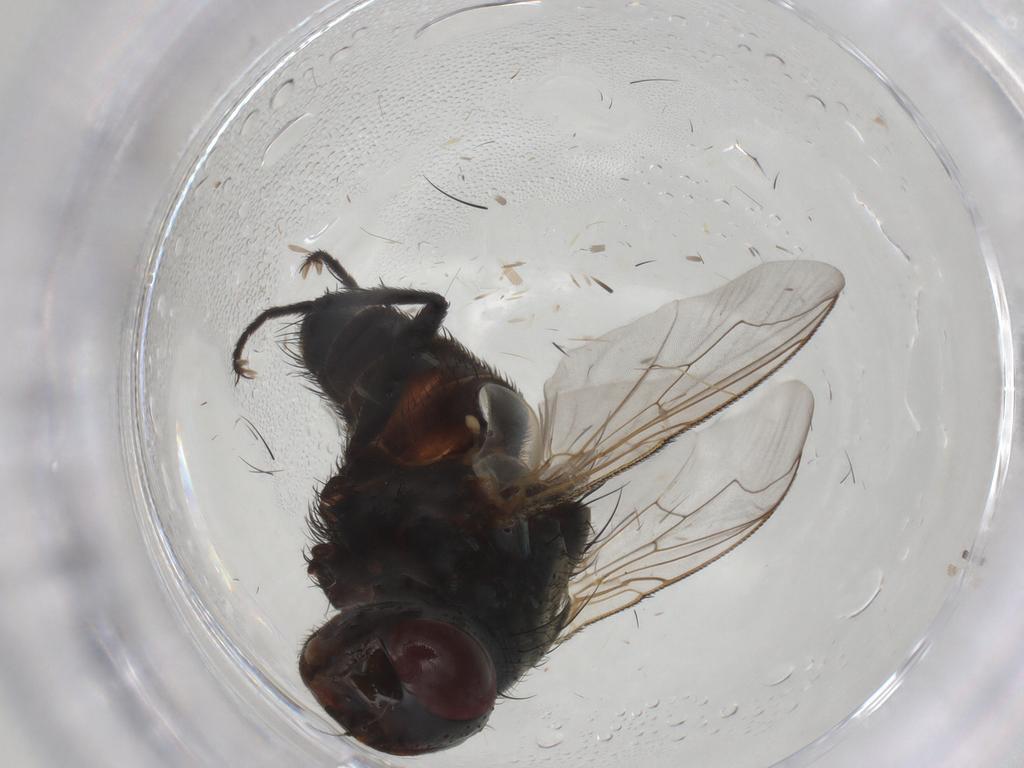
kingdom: Animalia
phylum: Arthropoda
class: Insecta
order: Diptera
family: Sarcophagidae
